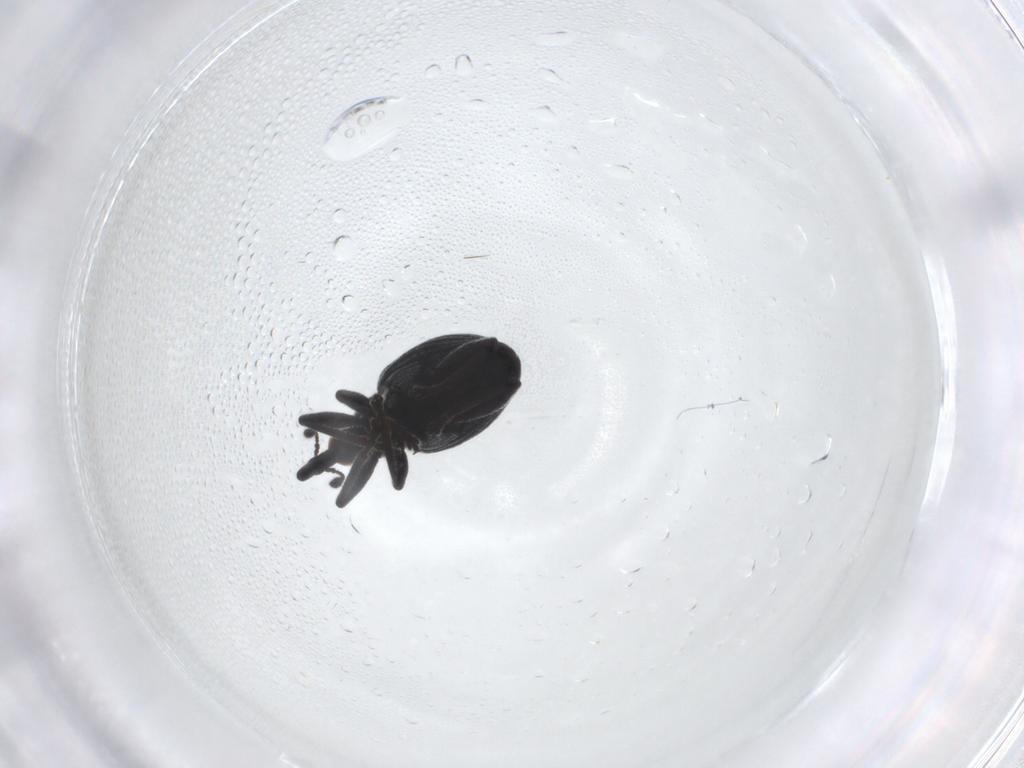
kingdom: Animalia
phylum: Arthropoda
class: Insecta
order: Coleoptera
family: Brentidae
